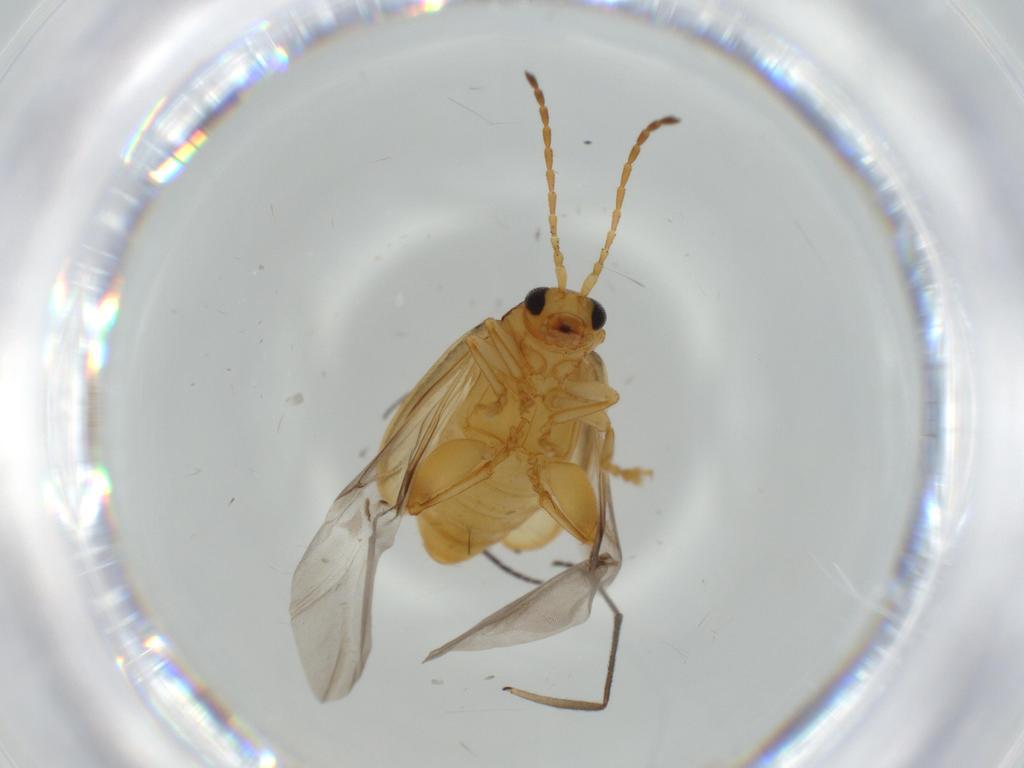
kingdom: Animalia
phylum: Arthropoda
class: Insecta
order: Coleoptera
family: Chrysomelidae
